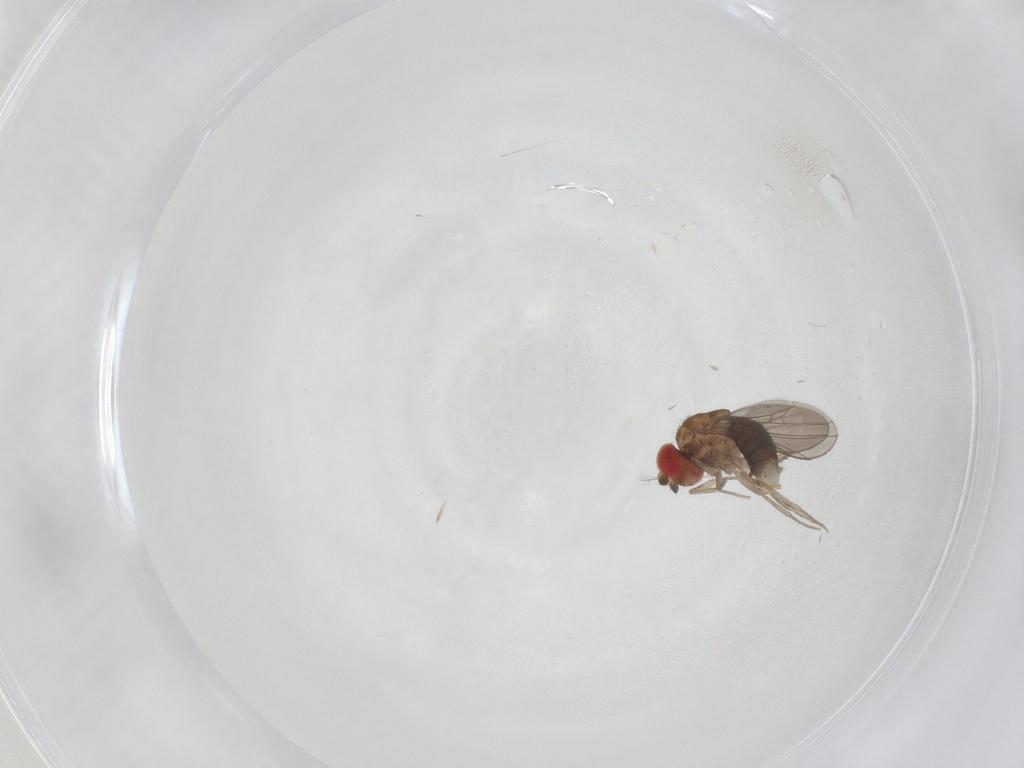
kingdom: Animalia
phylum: Arthropoda
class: Insecta
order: Diptera
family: Drosophilidae
